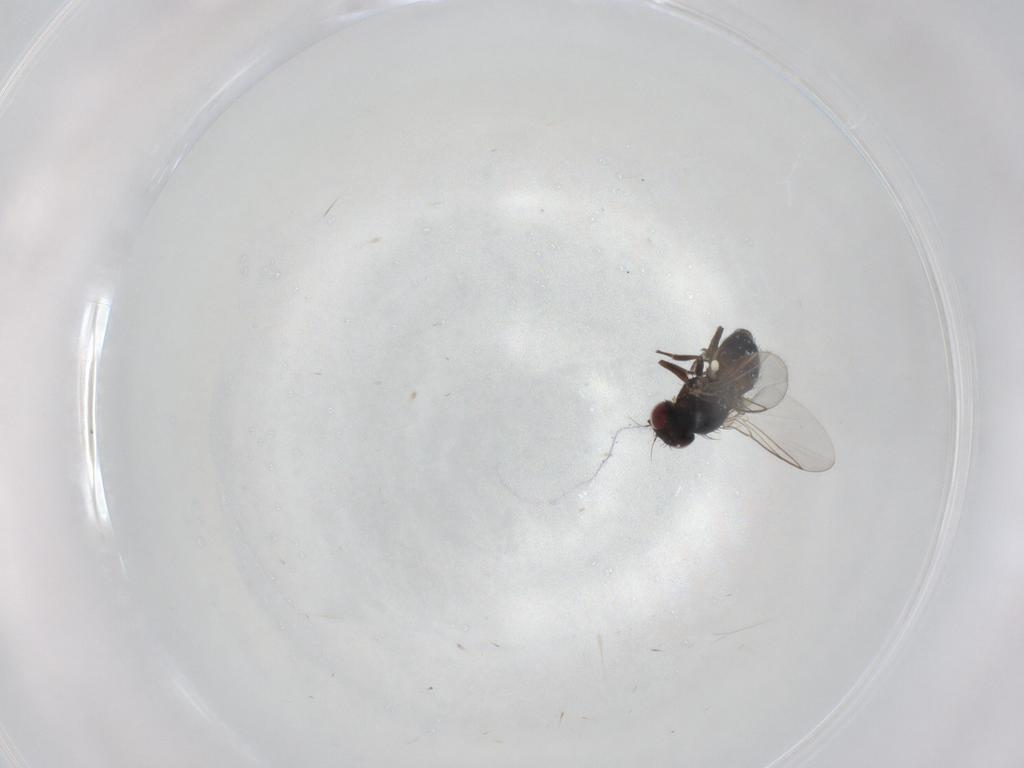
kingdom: Animalia
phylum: Arthropoda
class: Insecta
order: Diptera
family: Agromyzidae
